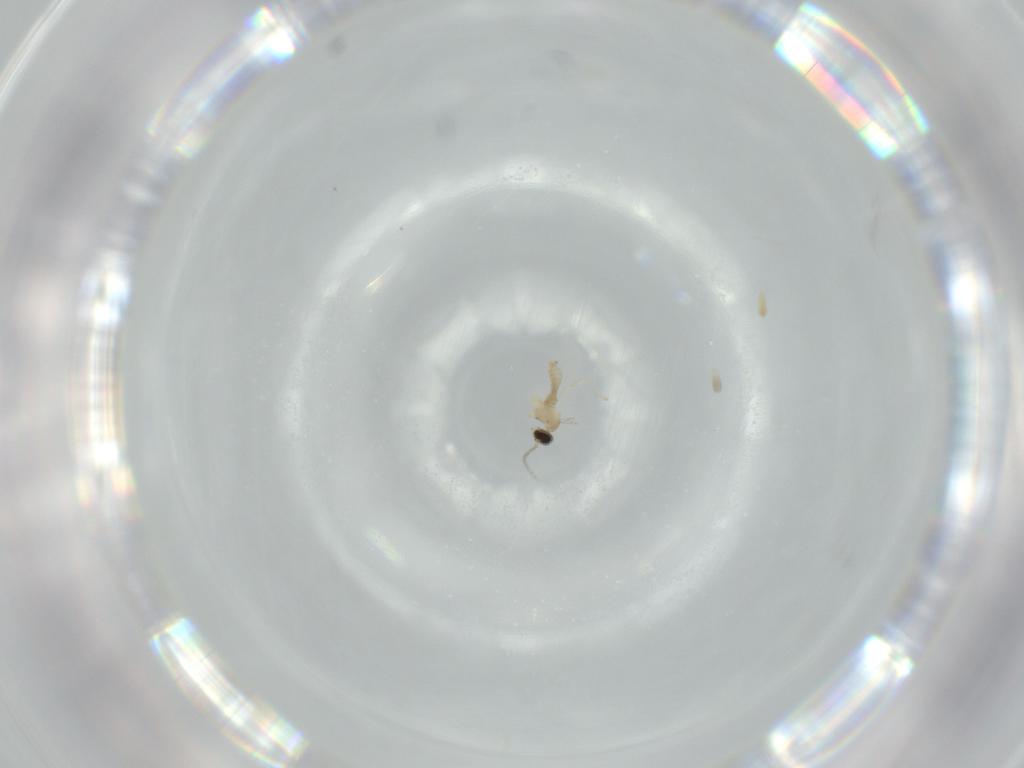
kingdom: Animalia
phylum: Arthropoda
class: Insecta
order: Diptera
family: Cecidomyiidae
